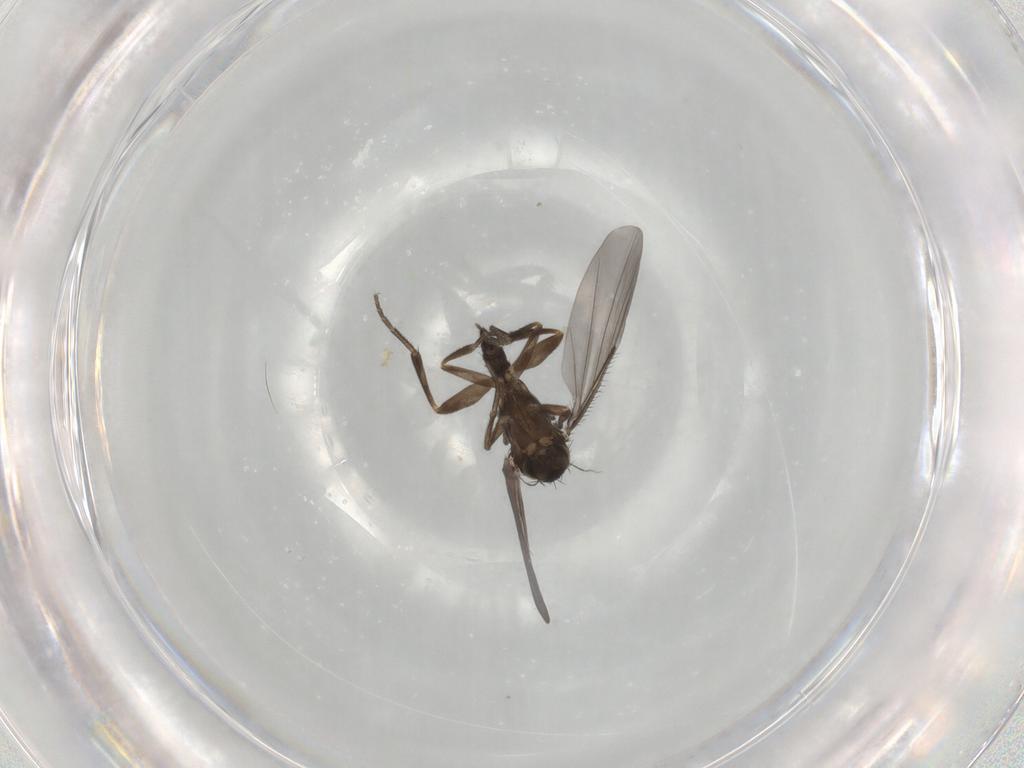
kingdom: Animalia
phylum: Arthropoda
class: Insecta
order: Diptera
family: Phoridae
